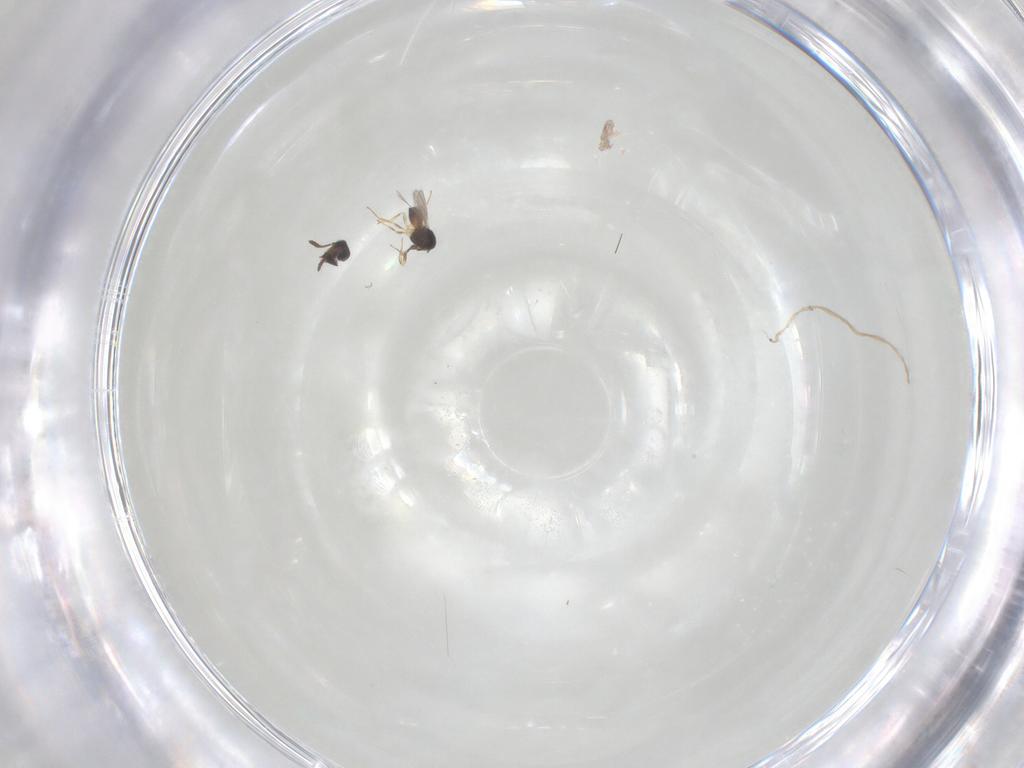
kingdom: Animalia
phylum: Arthropoda
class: Insecta
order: Hymenoptera
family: Scelionidae
